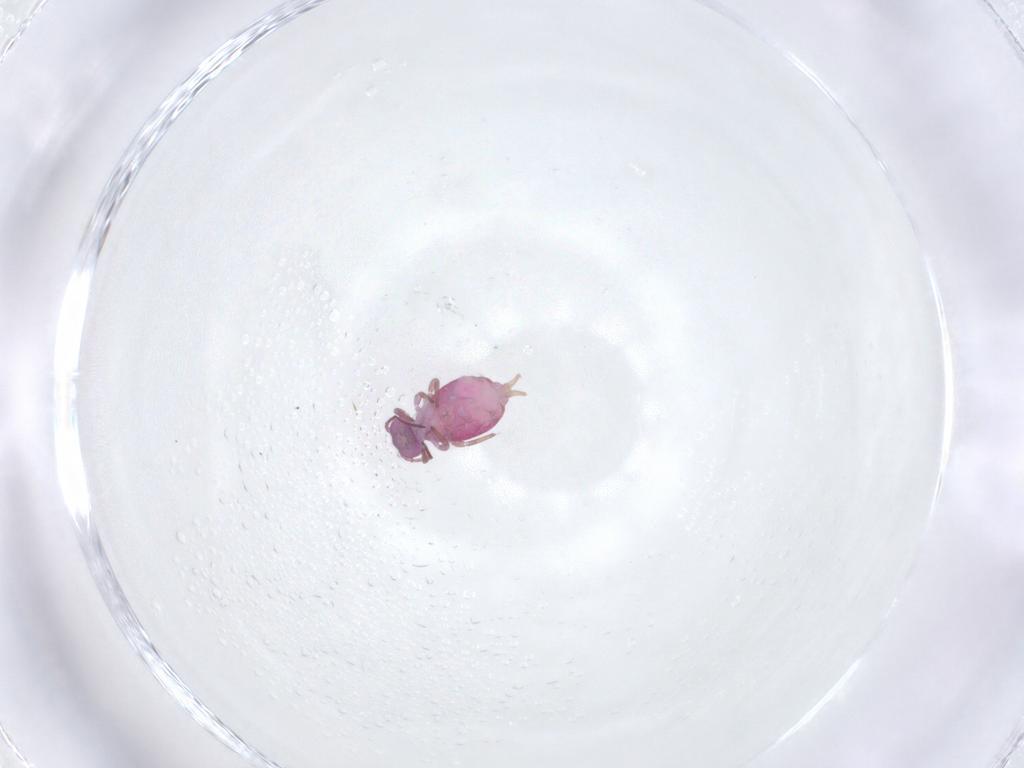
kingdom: Animalia
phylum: Arthropoda
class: Collembola
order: Symphypleona
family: Sminthuridae
